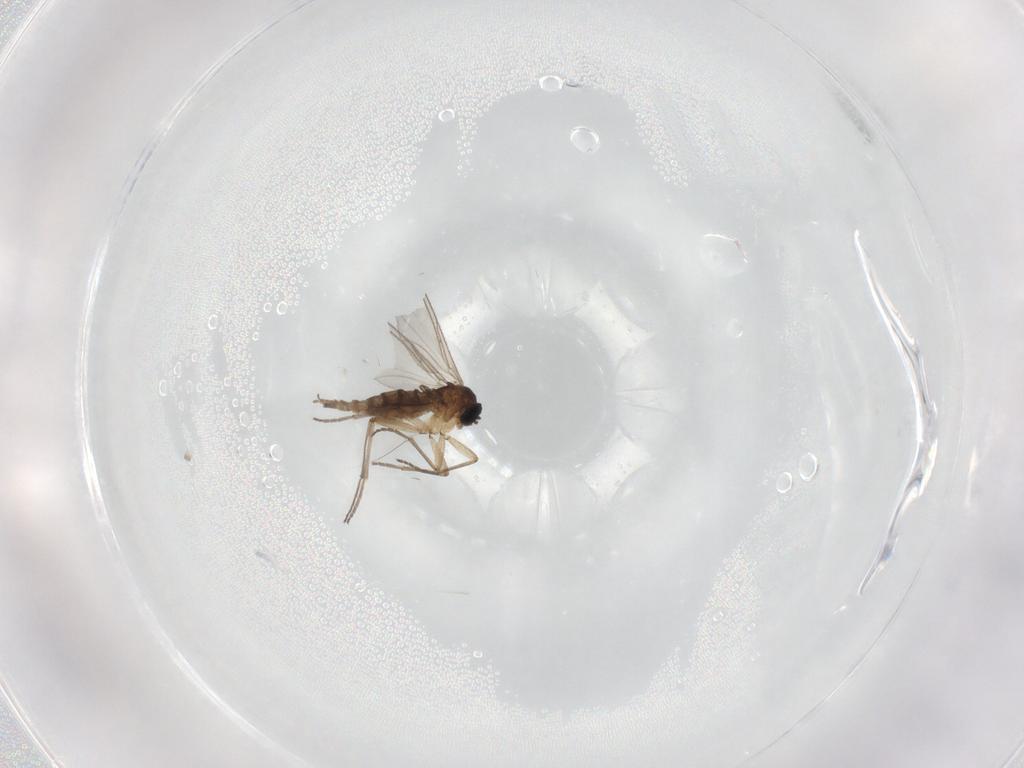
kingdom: Animalia
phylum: Arthropoda
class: Insecta
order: Diptera
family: Cecidomyiidae
